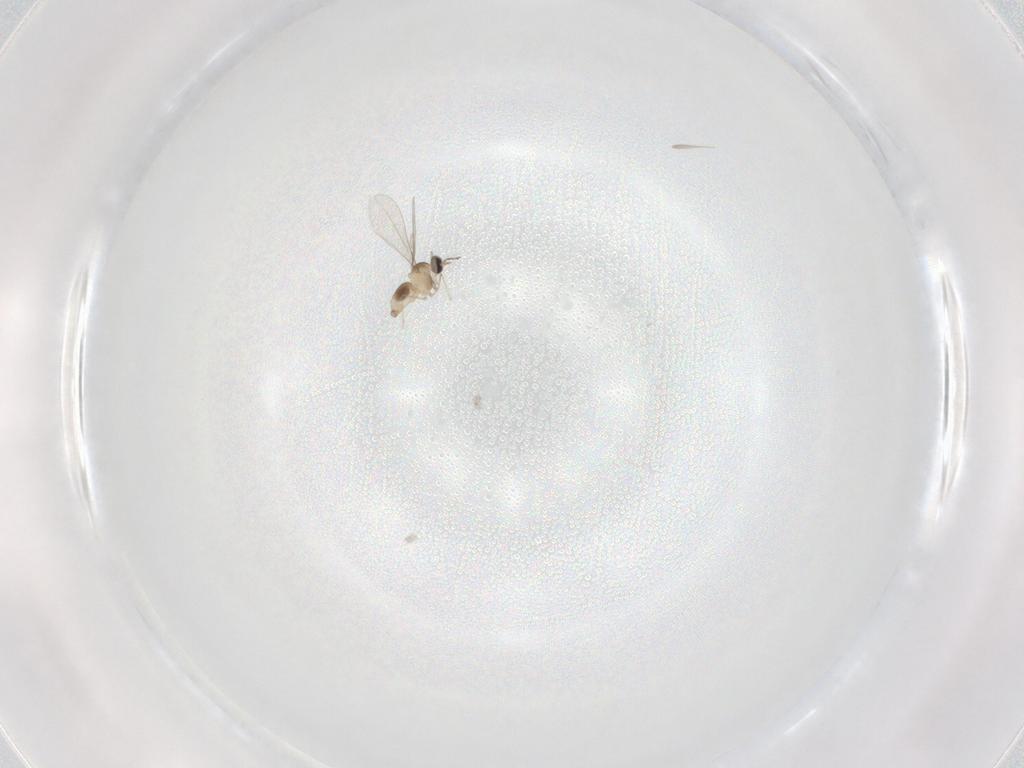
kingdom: Animalia
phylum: Arthropoda
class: Insecta
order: Diptera
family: Cecidomyiidae
